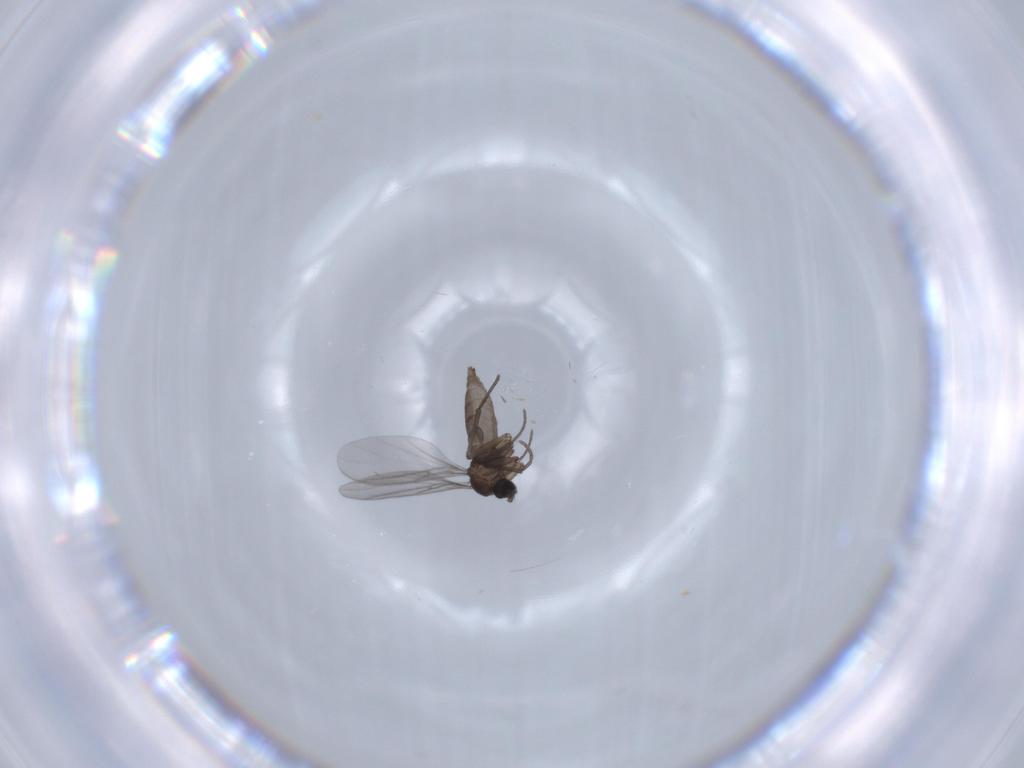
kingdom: Animalia
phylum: Arthropoda
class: Insecta
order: Diptera
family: Sciaridae
